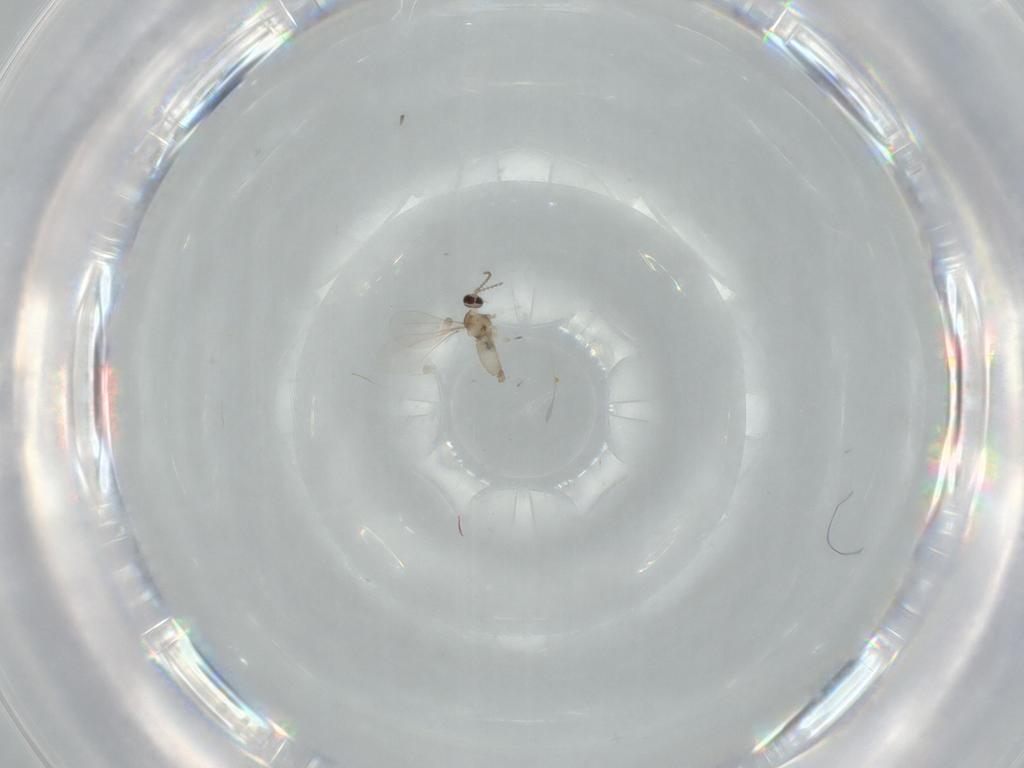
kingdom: Animalia
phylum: Arthropoda
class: Insecta
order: Diptera
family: Cecidomyiidae
